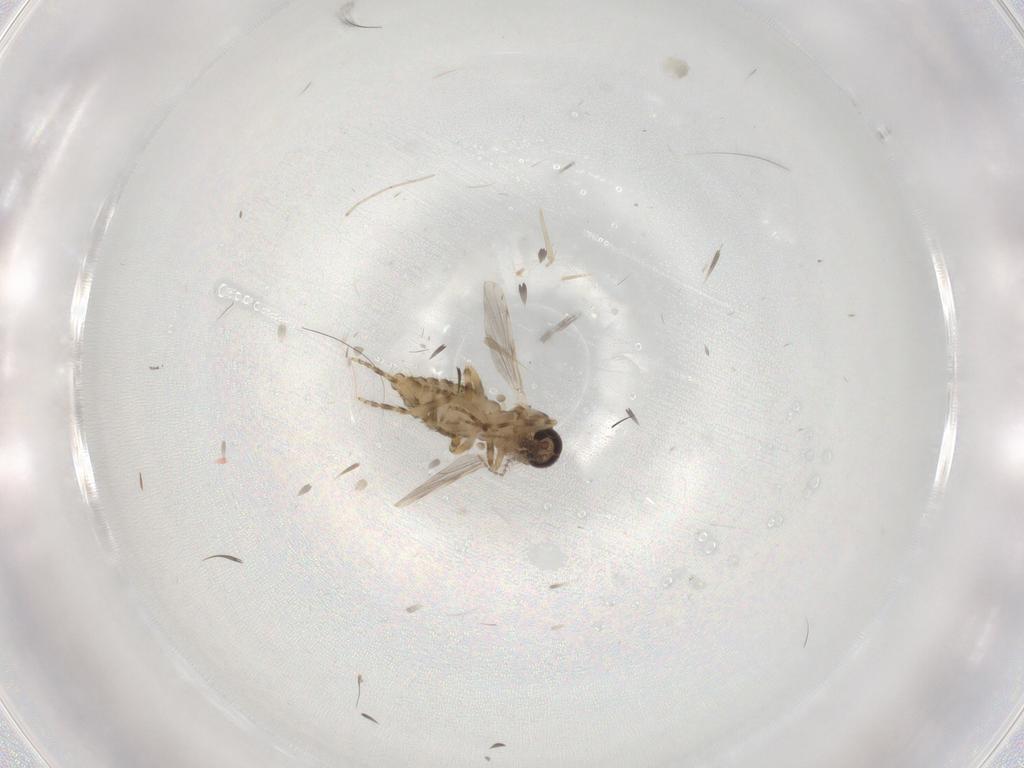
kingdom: Animalia
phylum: Arthropoda
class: Insecta
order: Diptera
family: Ceratopogonidae
